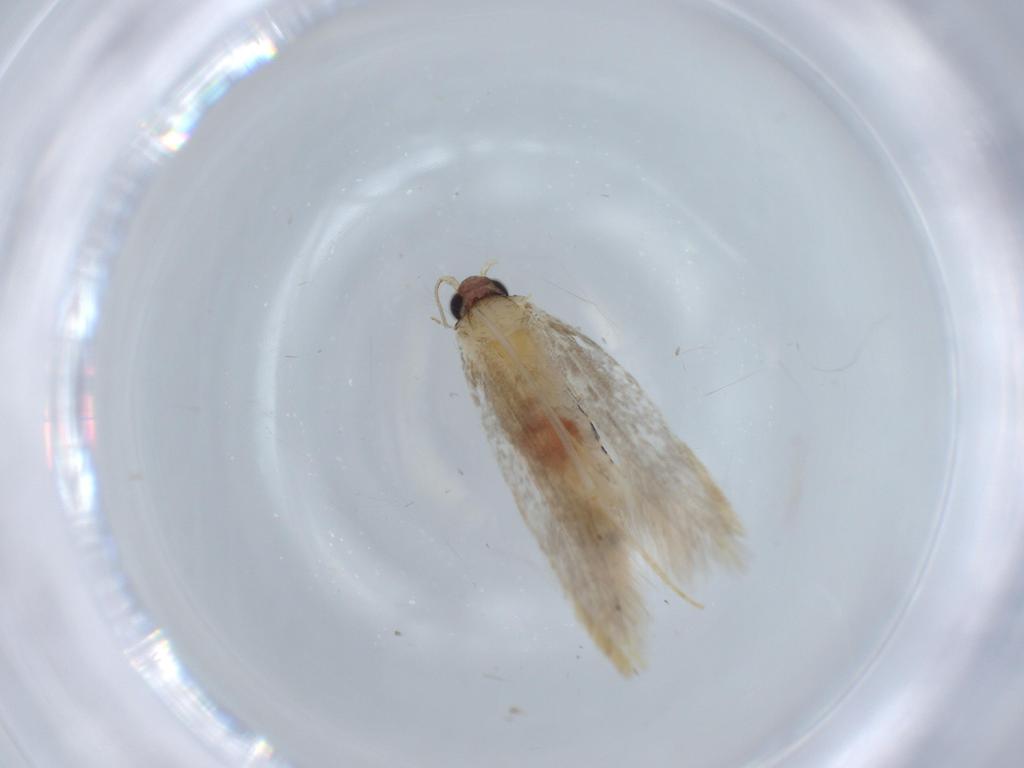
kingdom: Animalia
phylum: Arthropoda
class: Insecta
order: Lepidoptera
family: Tineidae
